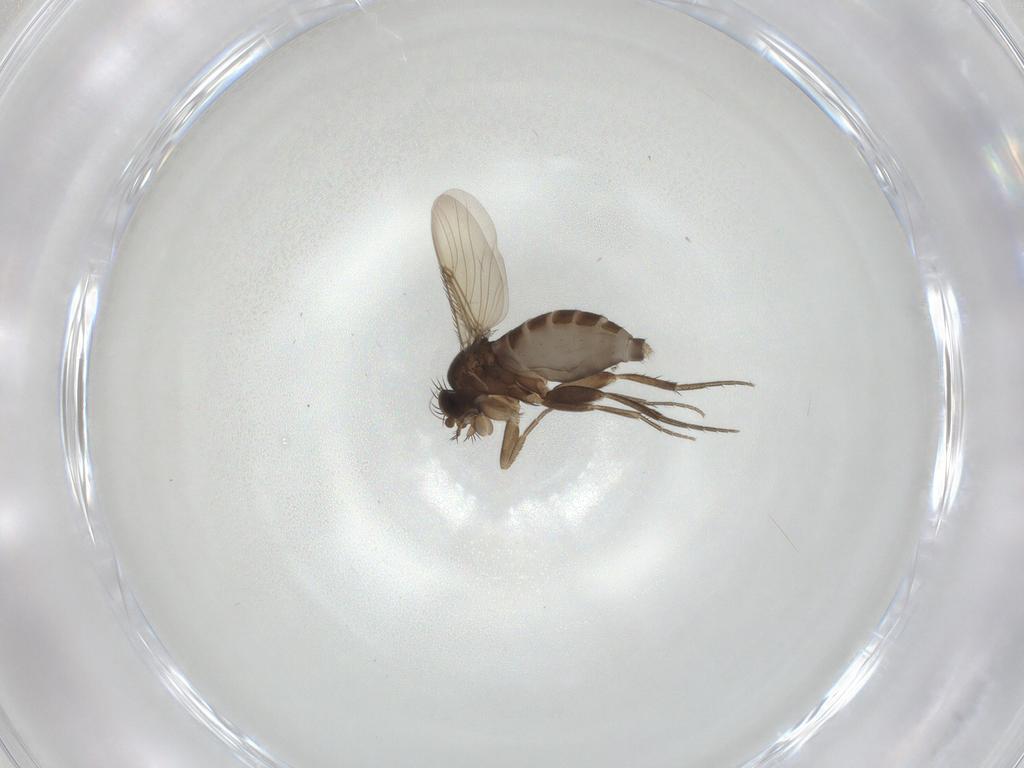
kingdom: Animalia
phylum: Arthropoda
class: Insecta
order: Diptera
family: Phoridae
